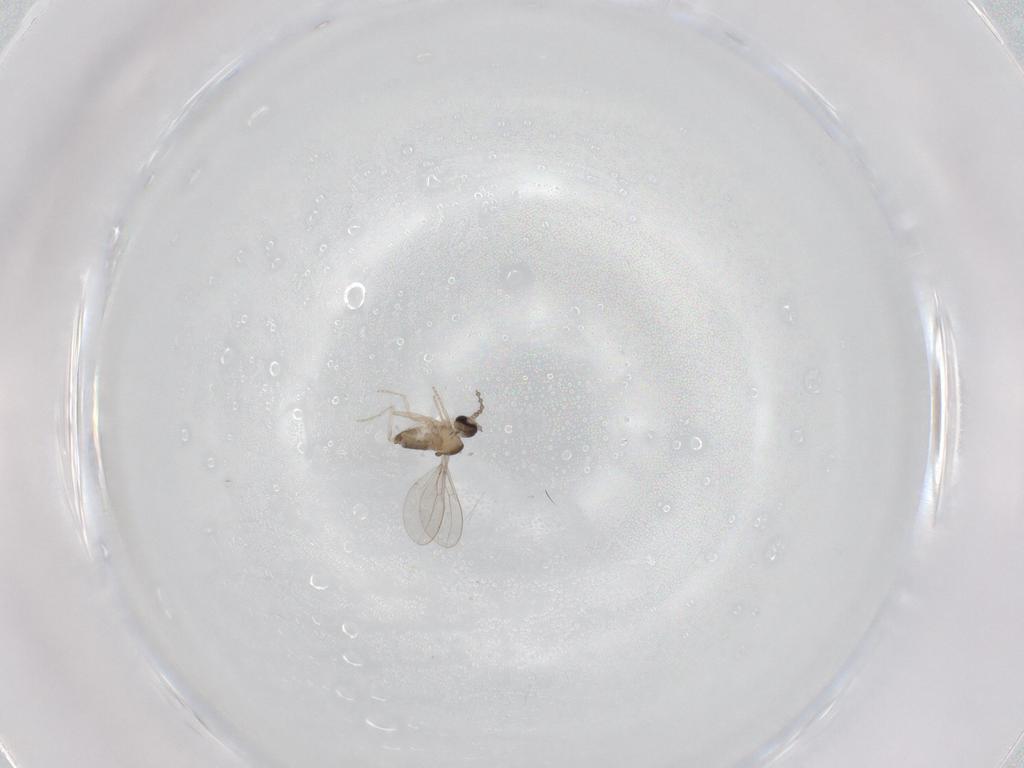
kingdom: Animalia
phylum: Arthropoda
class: Insecta
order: Diptera
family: Cecidomyiidae
